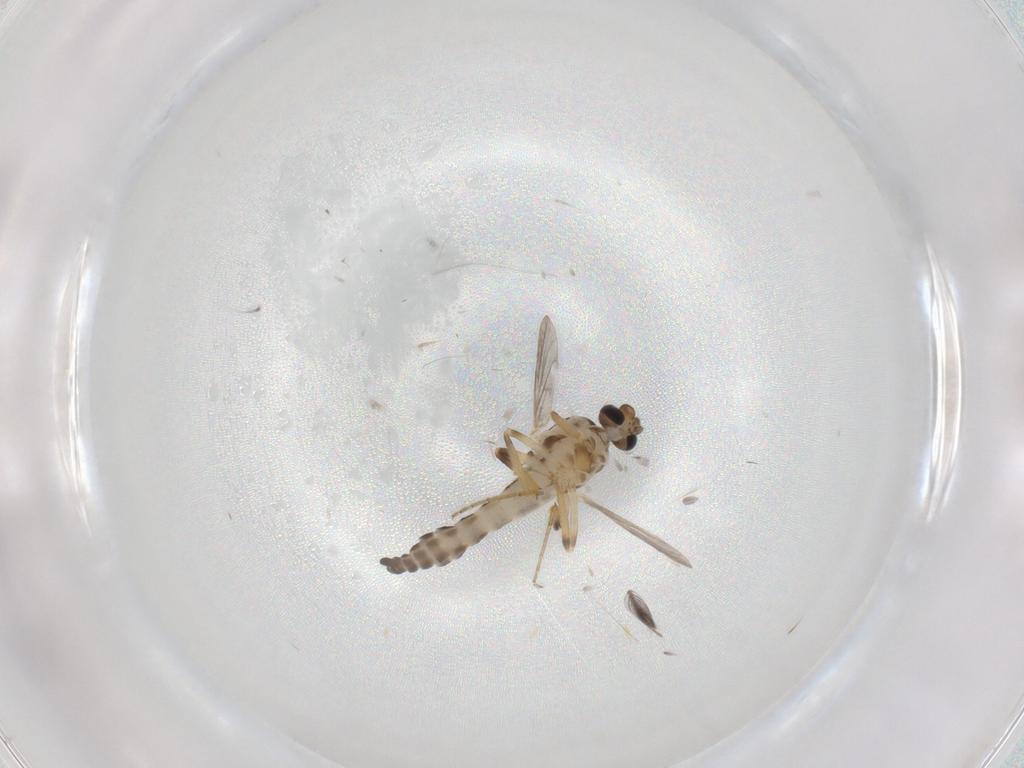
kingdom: Animalia
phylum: Arthropoda
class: Insecta
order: Diptera
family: Ceratopogonidae
